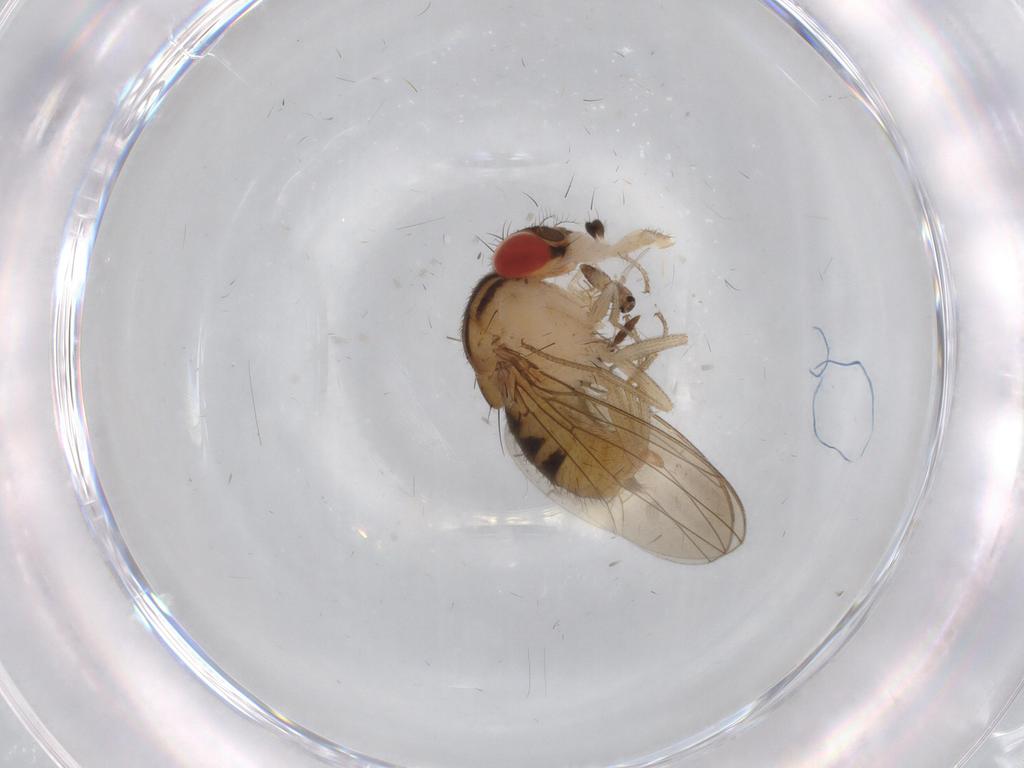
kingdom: Animalia
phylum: Arthropoda
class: Insecta
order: Diptera
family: Drosophilidae
